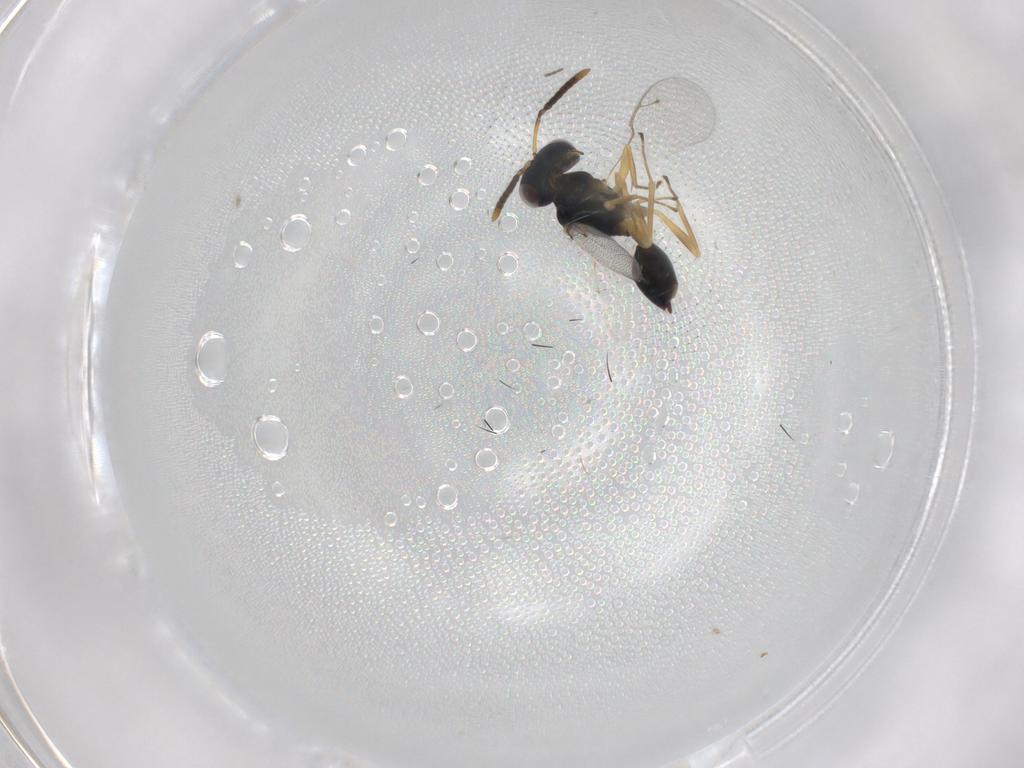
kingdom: Animalia
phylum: Arthropoda
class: Insecta
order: Hymenoptera
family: Pteromalidae
